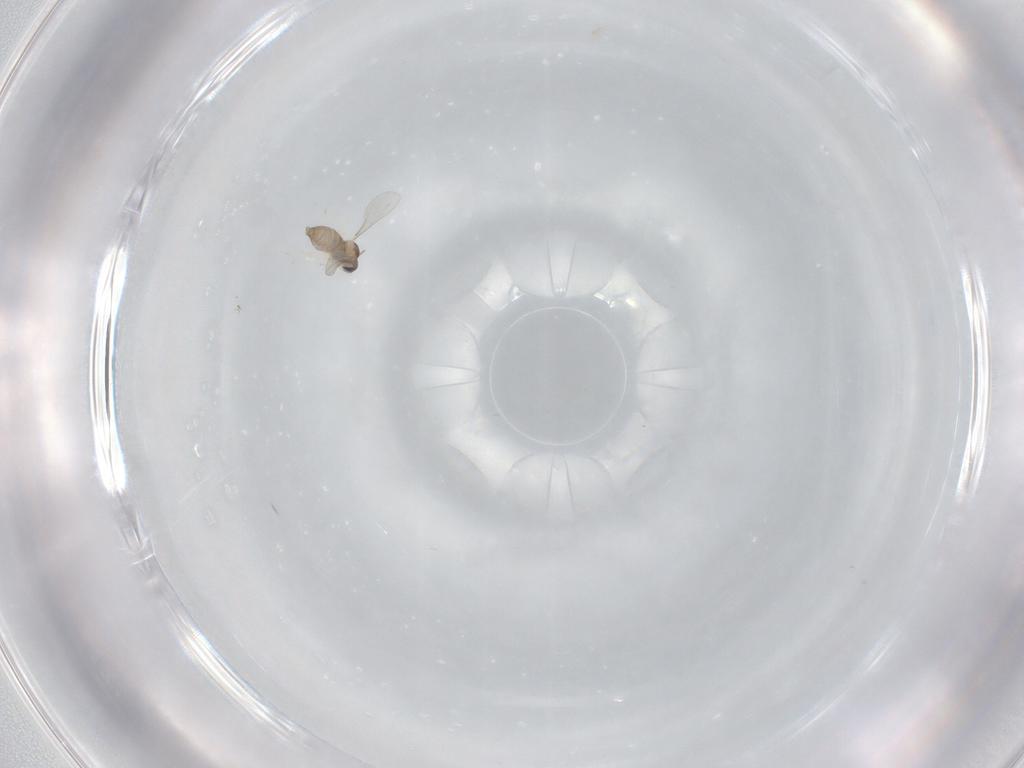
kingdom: Animalia
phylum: Arthropoda
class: Insecta
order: Diptera
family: Cecidomyiidae
